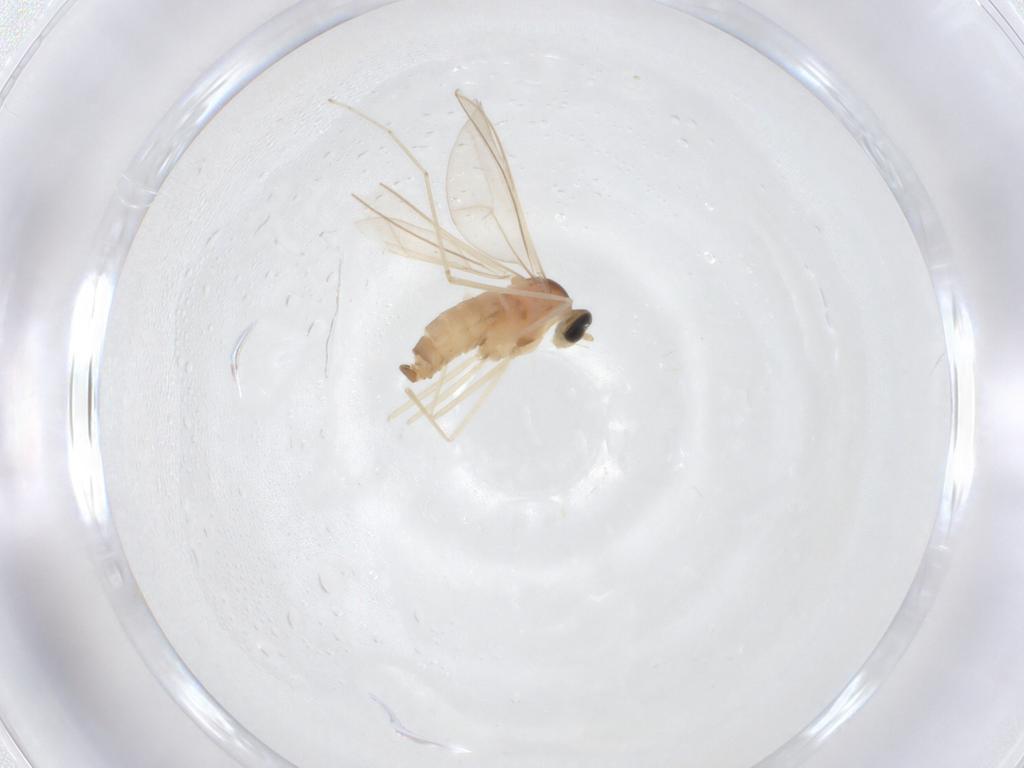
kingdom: Animalia
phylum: Arthropoda
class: Insecta
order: Diptera
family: Cecidomyiidae
